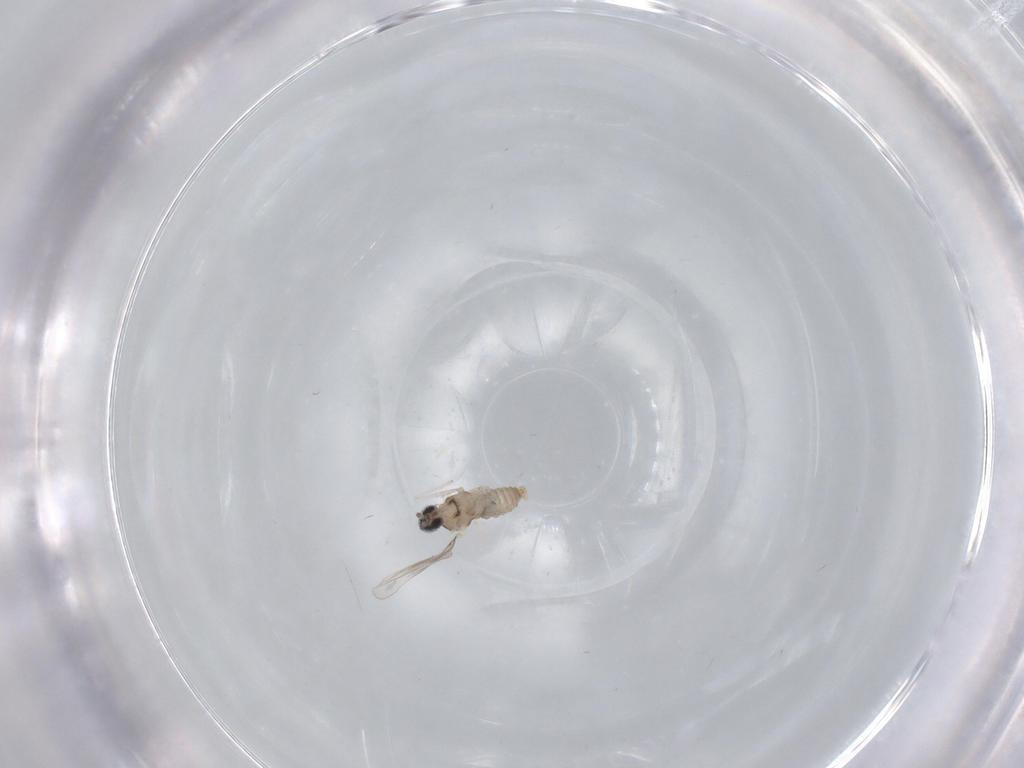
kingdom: Animalia
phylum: Arthropoda
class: Insecta
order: Diptera
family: Cecidomyiidae
